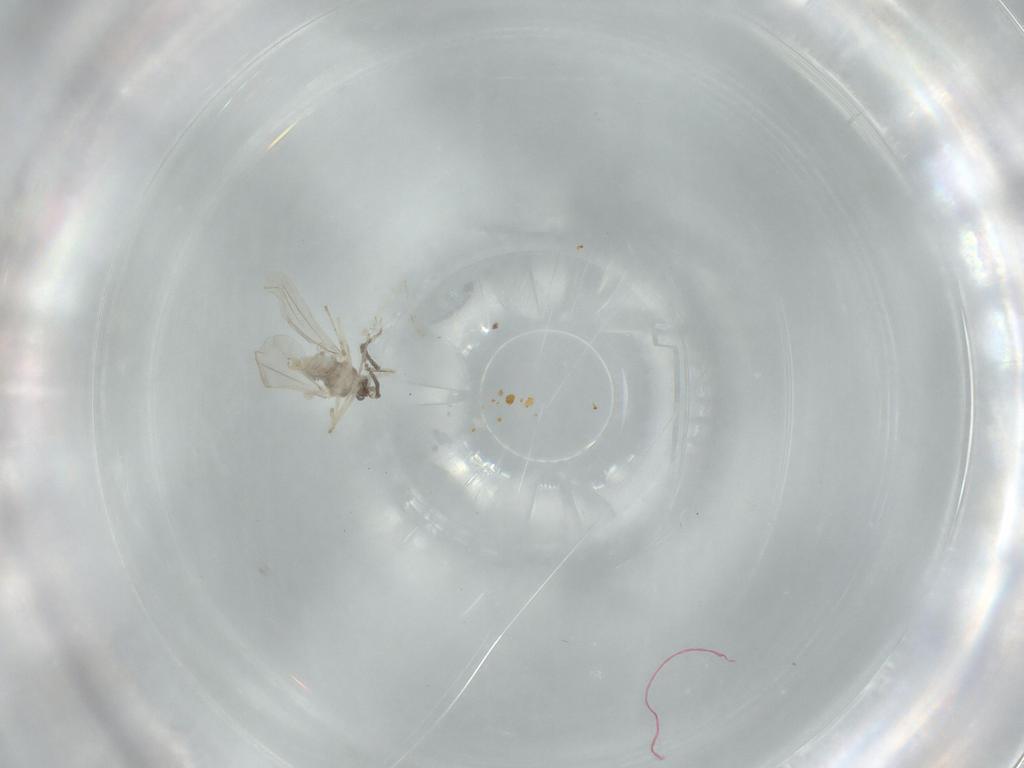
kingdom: Animalia
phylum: Arthropoda
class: Insecta
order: Diptera
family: Cecidomyiidae
